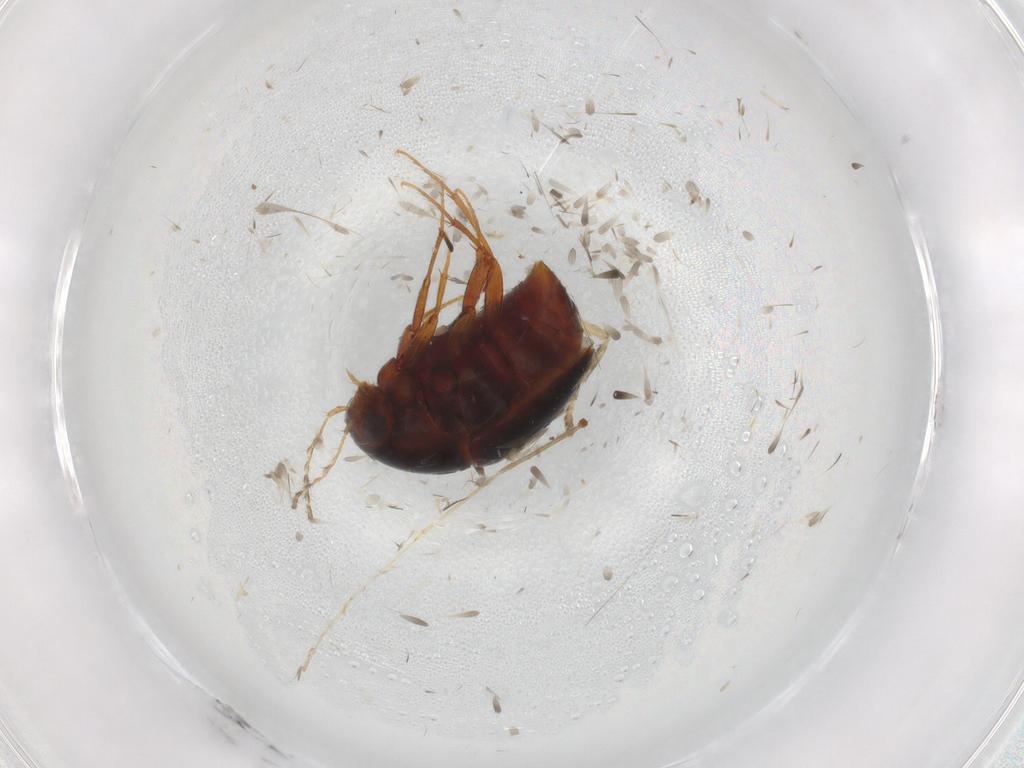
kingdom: Animalia
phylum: Arthropoda
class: Insecta
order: Coleoptera
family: Staphylinidae
